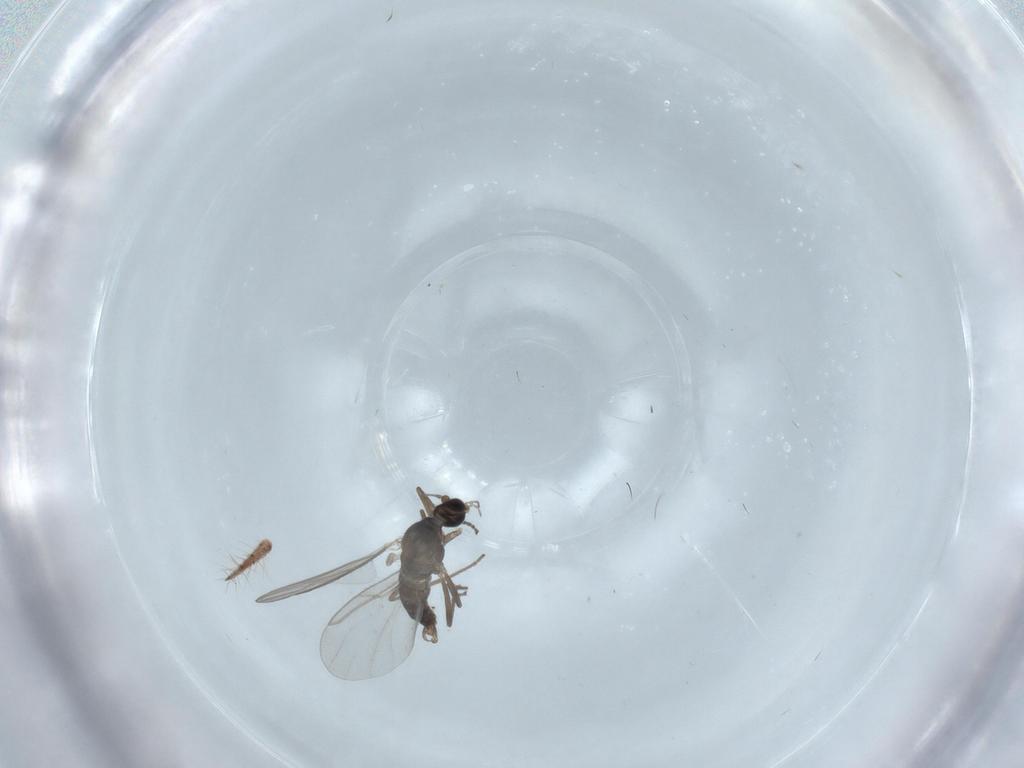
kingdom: Animalia
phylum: Arthropoda
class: Insecta
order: Diptera
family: Cecidomyiidae
